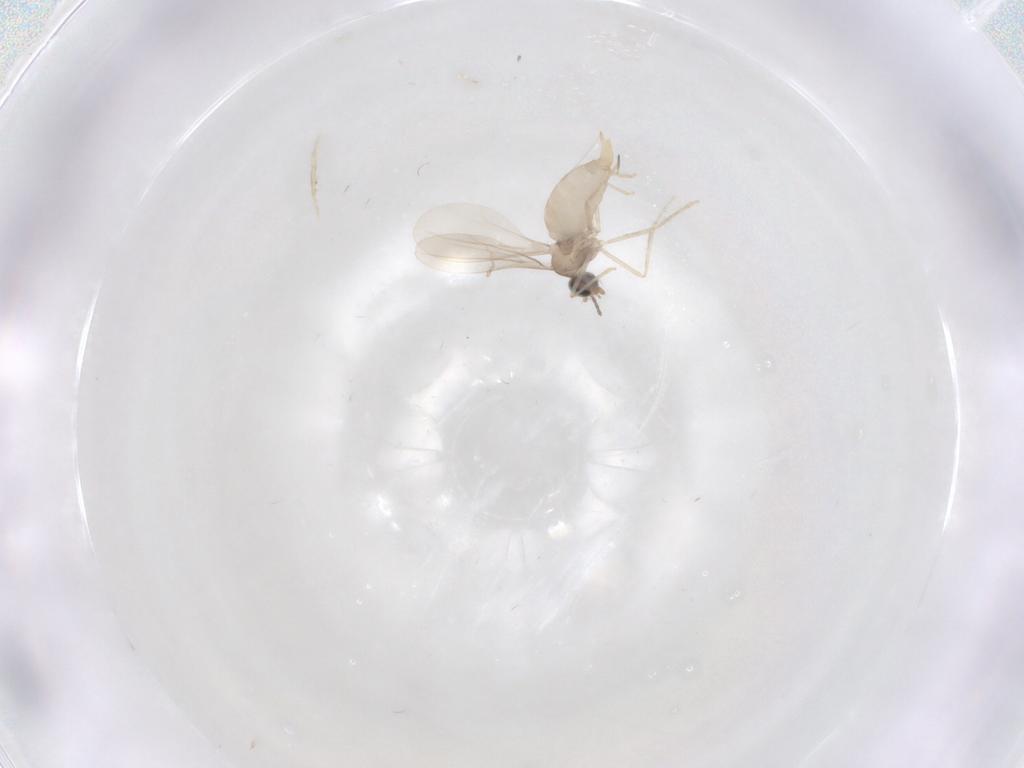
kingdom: Animalia
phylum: Arthropoda
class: Insecta
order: Diptera
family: Cecidomyiidae
